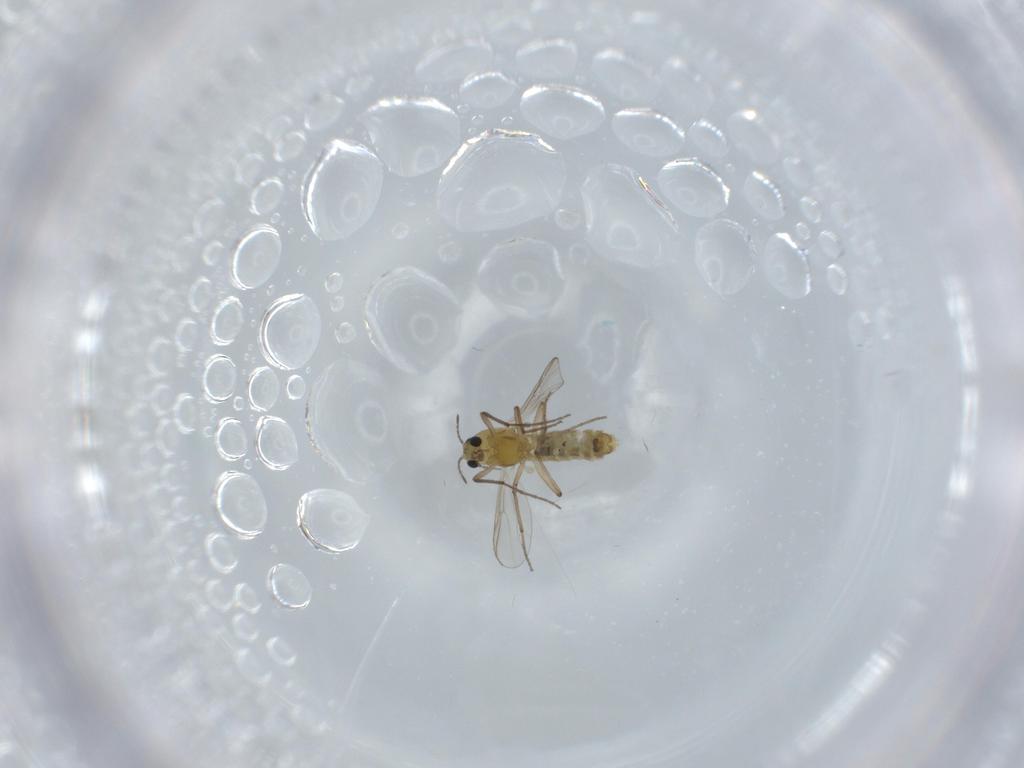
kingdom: Animalia
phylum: Arthropoda
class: Insecta
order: Diptera
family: Chironomidae
